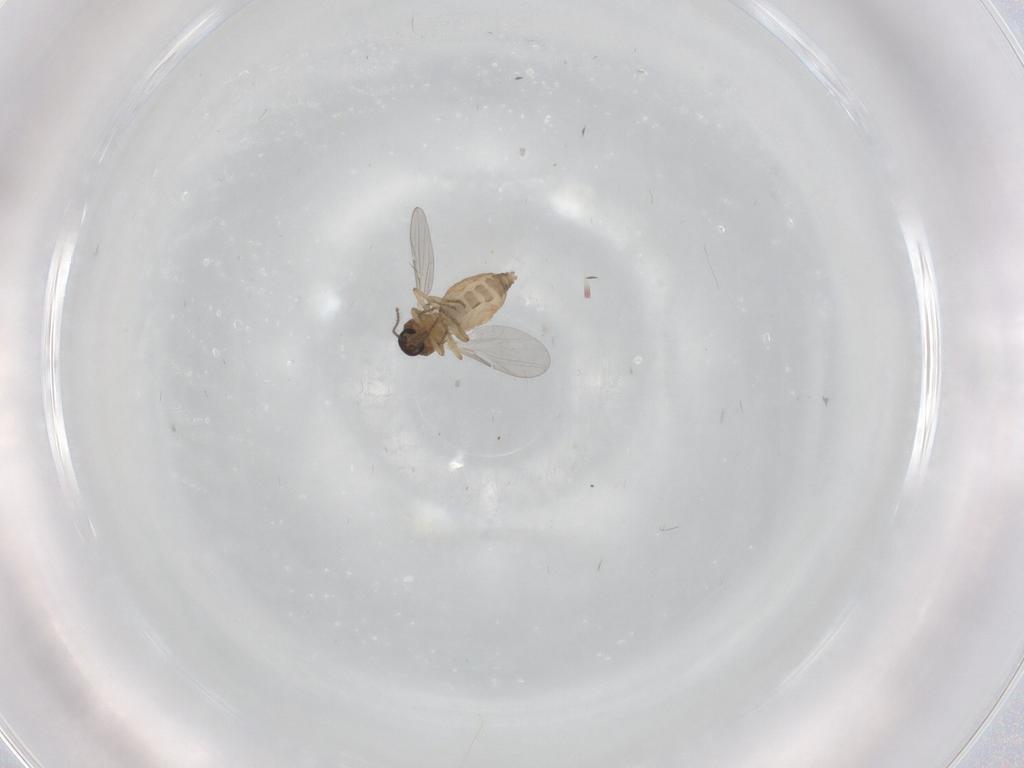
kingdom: Animalia
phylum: Arthropoda
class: Insecta
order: Diptera
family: Ceratopogonidae
